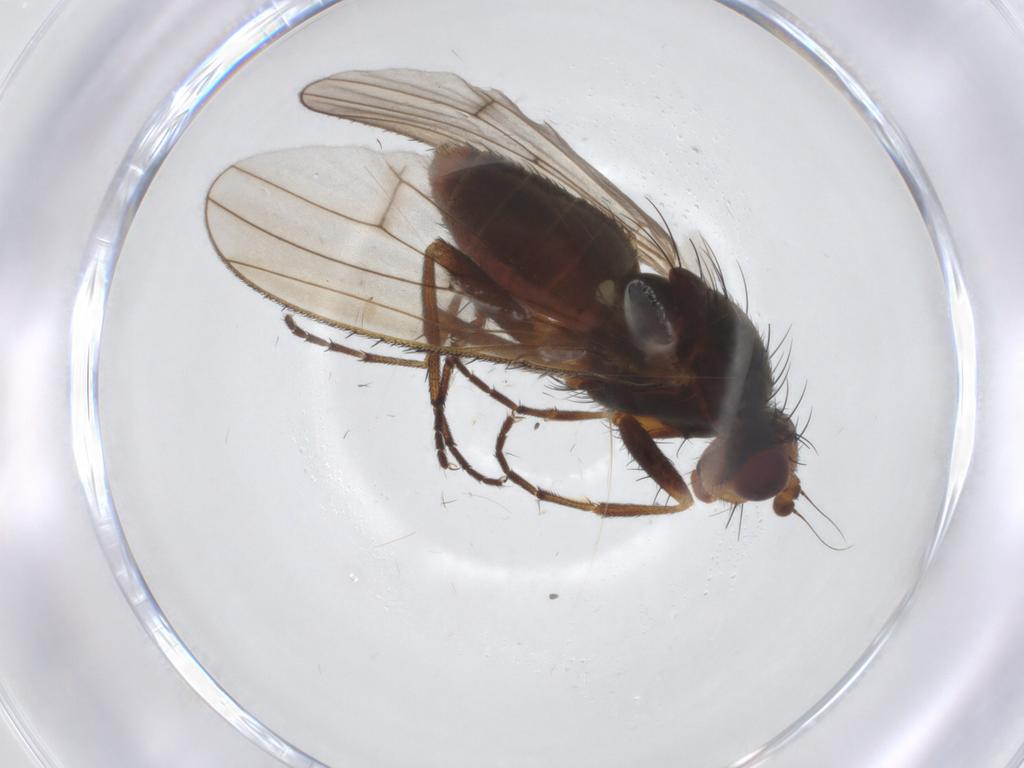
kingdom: Animalia
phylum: Arthropoda
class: Insecta
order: Diptera
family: Heleomyzidae
